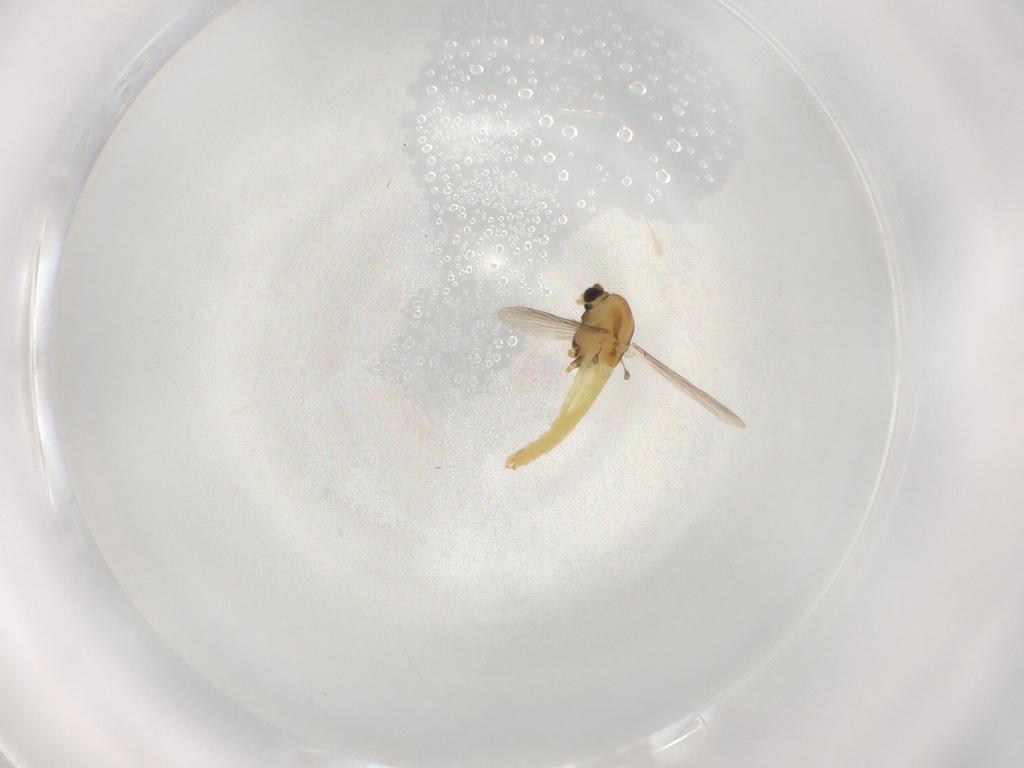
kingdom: Animalia
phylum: Arthropoda
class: Insecta
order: Diptera
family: Chironomidae
